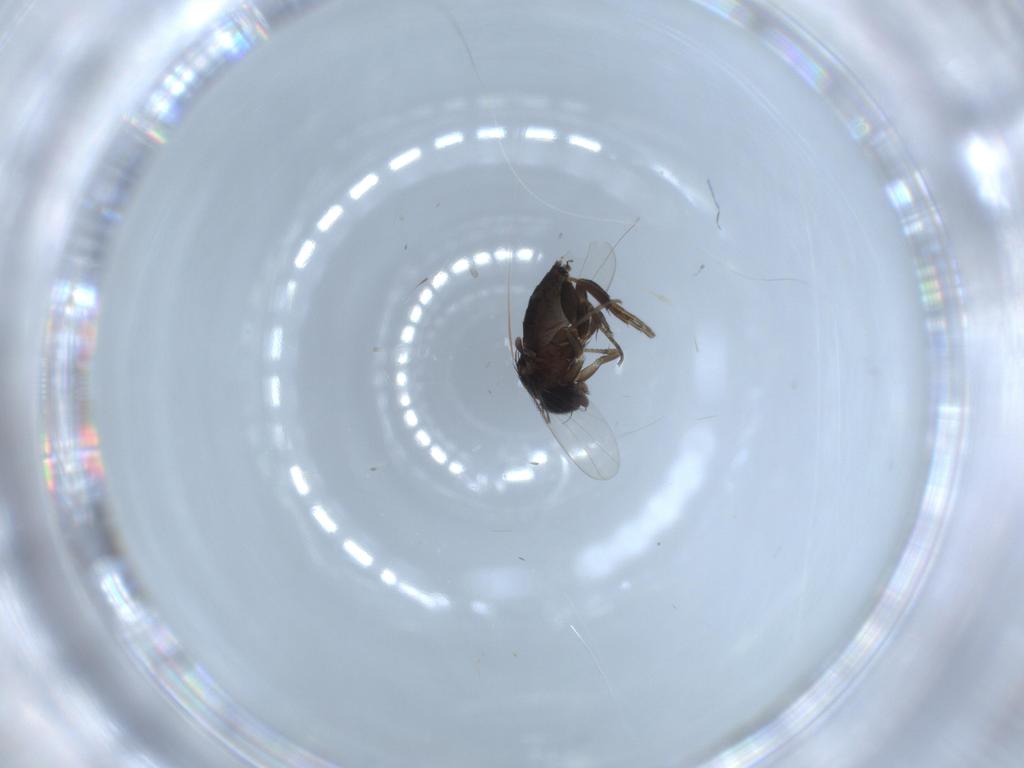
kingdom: Animalia
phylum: Arthropoda
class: Insecta
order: Diptera
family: Phoridae
